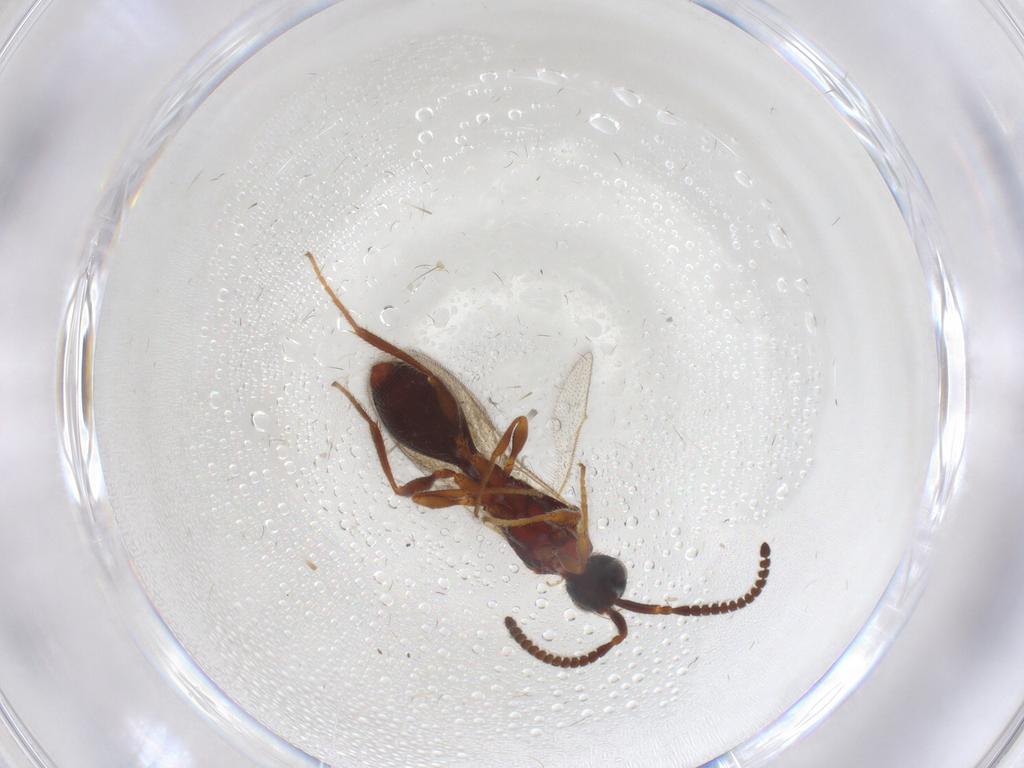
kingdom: Animalia
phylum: Arthropoda
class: Insecta
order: Hymenoptera
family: Diapriidae
